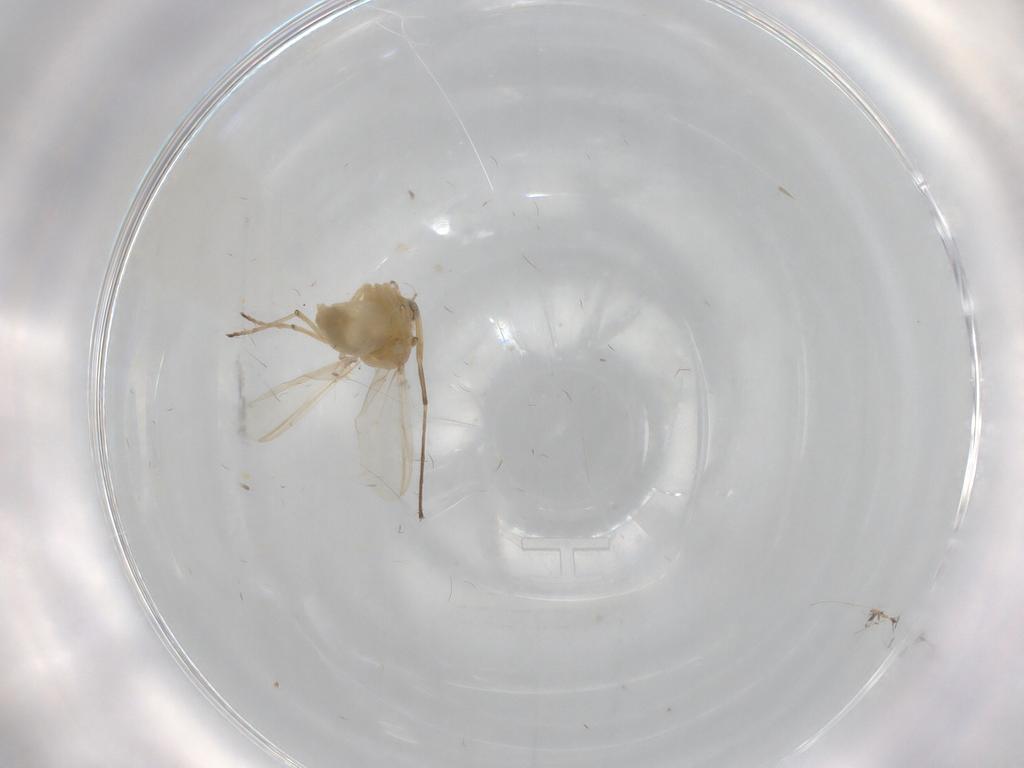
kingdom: Animalia
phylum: Arthropoda
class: Insecta
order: Diptera
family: Chironomidae
